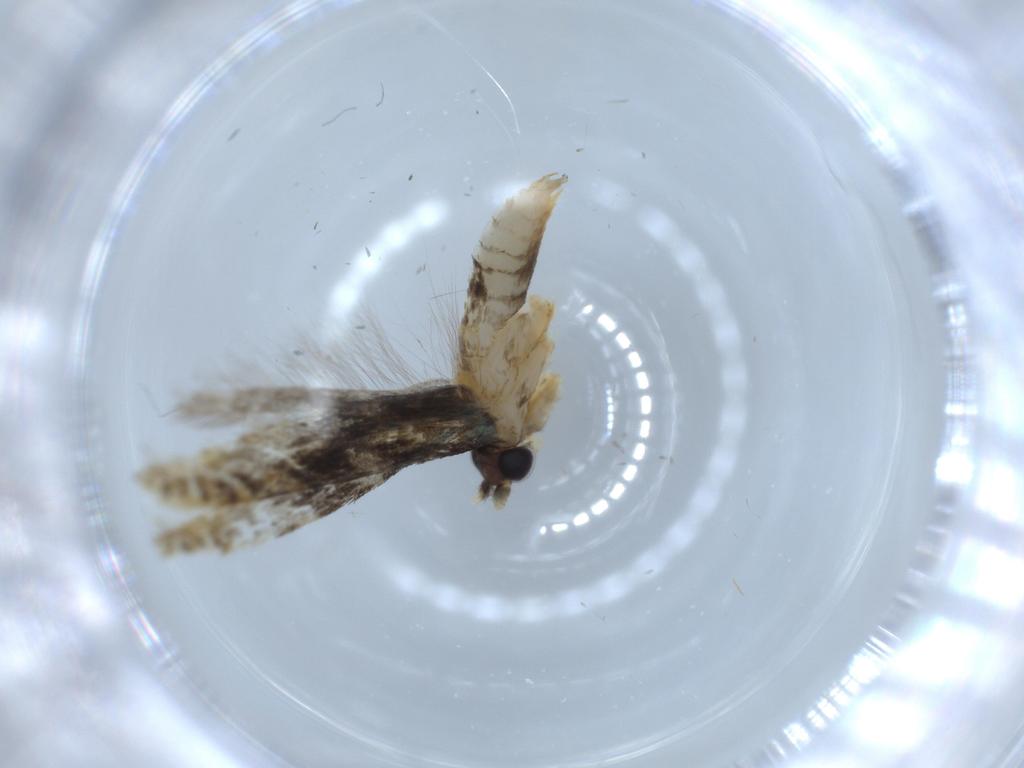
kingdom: Animalia
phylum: Arthropoda
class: Insecta
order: Lepidoptera
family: Tineidae
